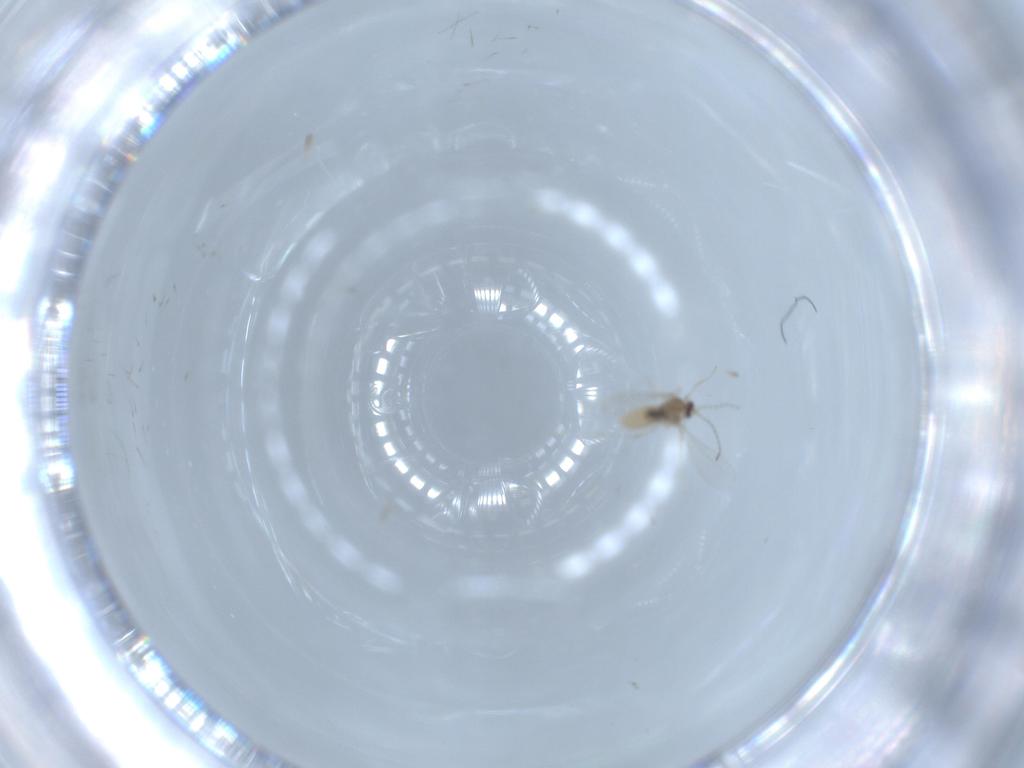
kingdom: Animalia
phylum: Arthropoda
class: Insecta
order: Diptera
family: Cecidomyiidae
